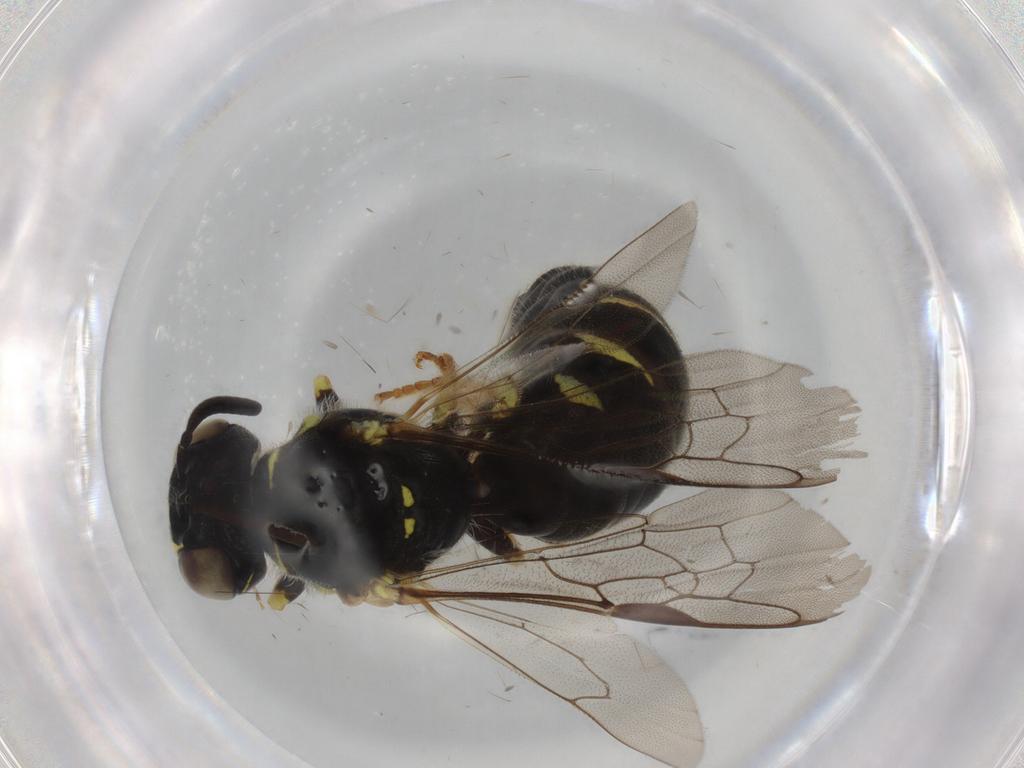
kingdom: Animalia
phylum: Arthropoda
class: Insecta
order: Hymenoptera
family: Apidae
